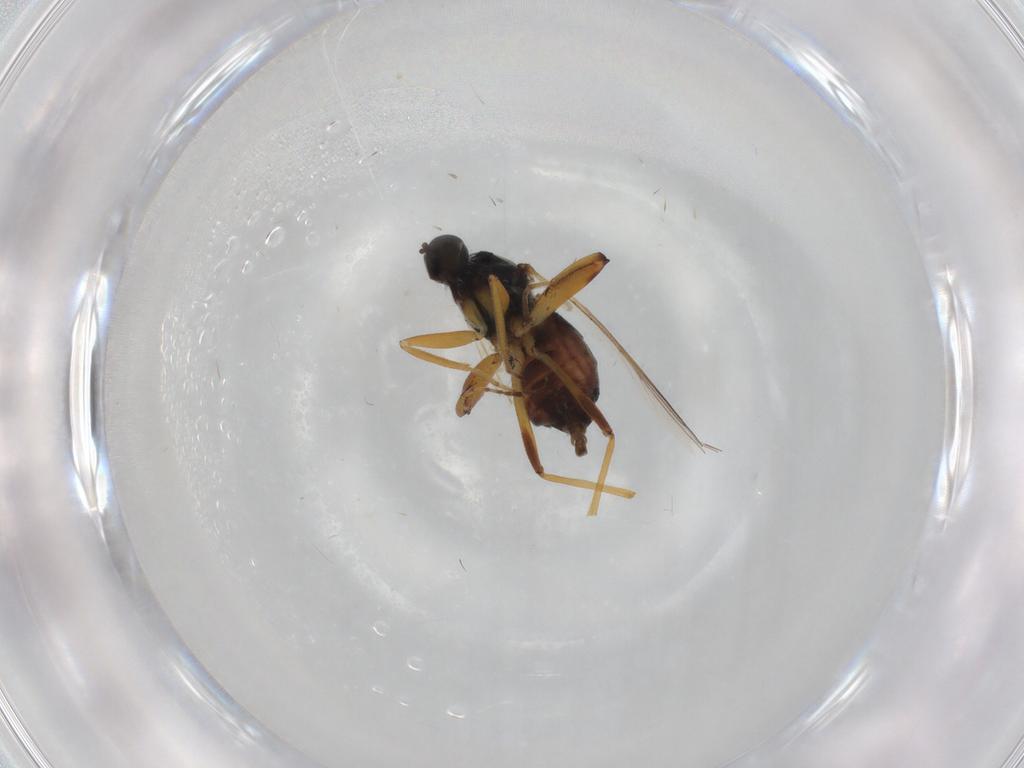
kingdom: Animalia
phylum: Arthropoda
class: Insecta
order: Diptera
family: Hybotidae
